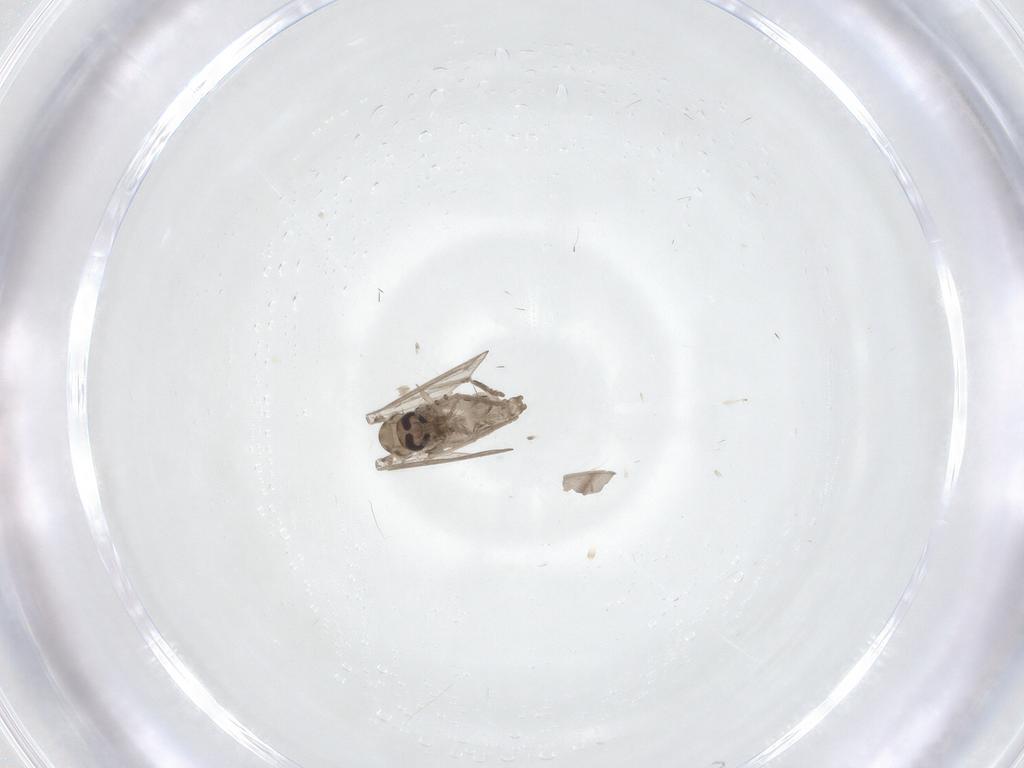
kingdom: Animalia
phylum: Arthropoda
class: Insecta
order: Diptera
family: Psychodidae
